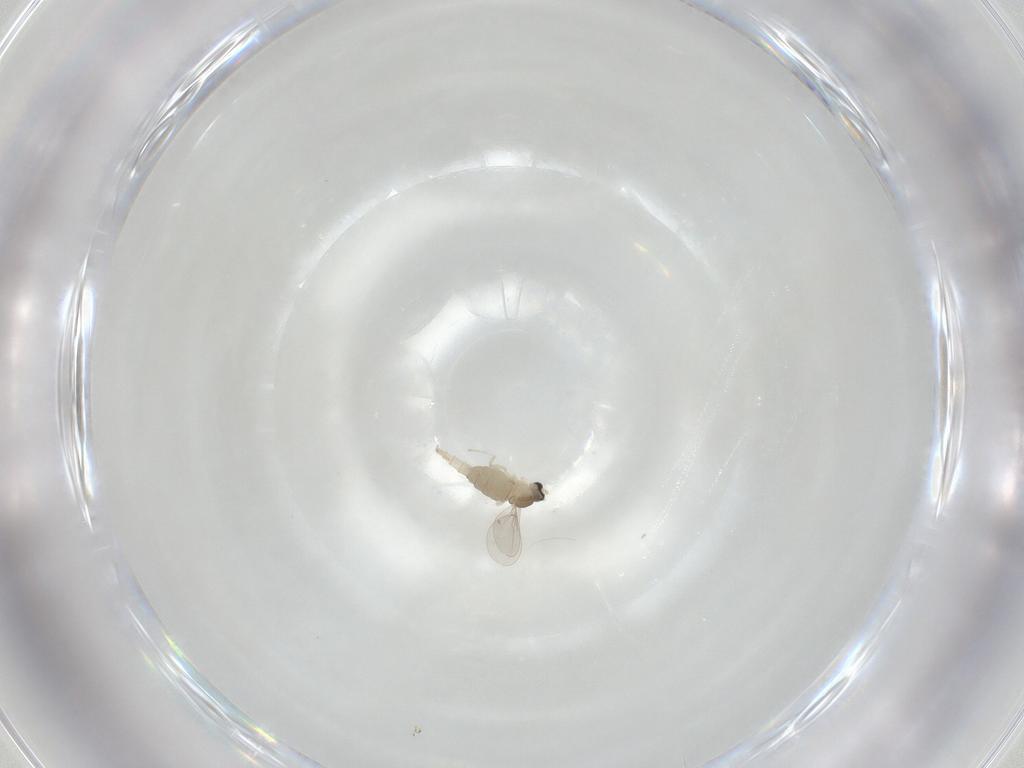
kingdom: Animalia
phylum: Arthropoda
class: Insecta
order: Diptera
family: Cecidomyiidae
